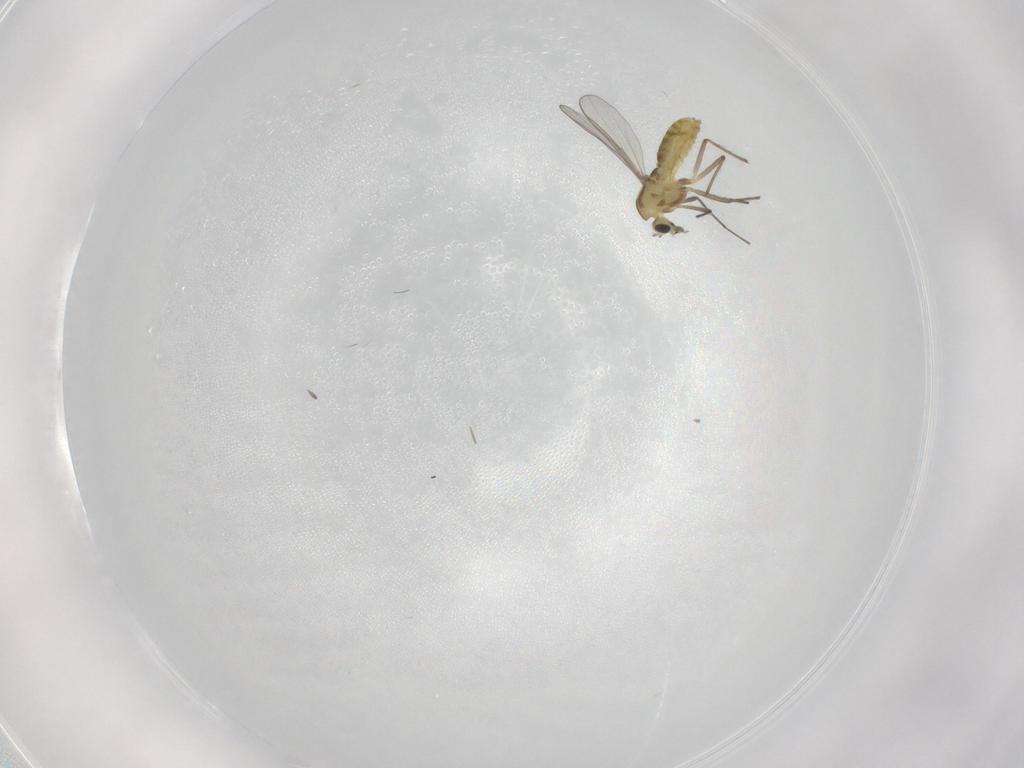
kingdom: Animalia
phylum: Arthropoda
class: Insecta
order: Diptera
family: Chironomidae
